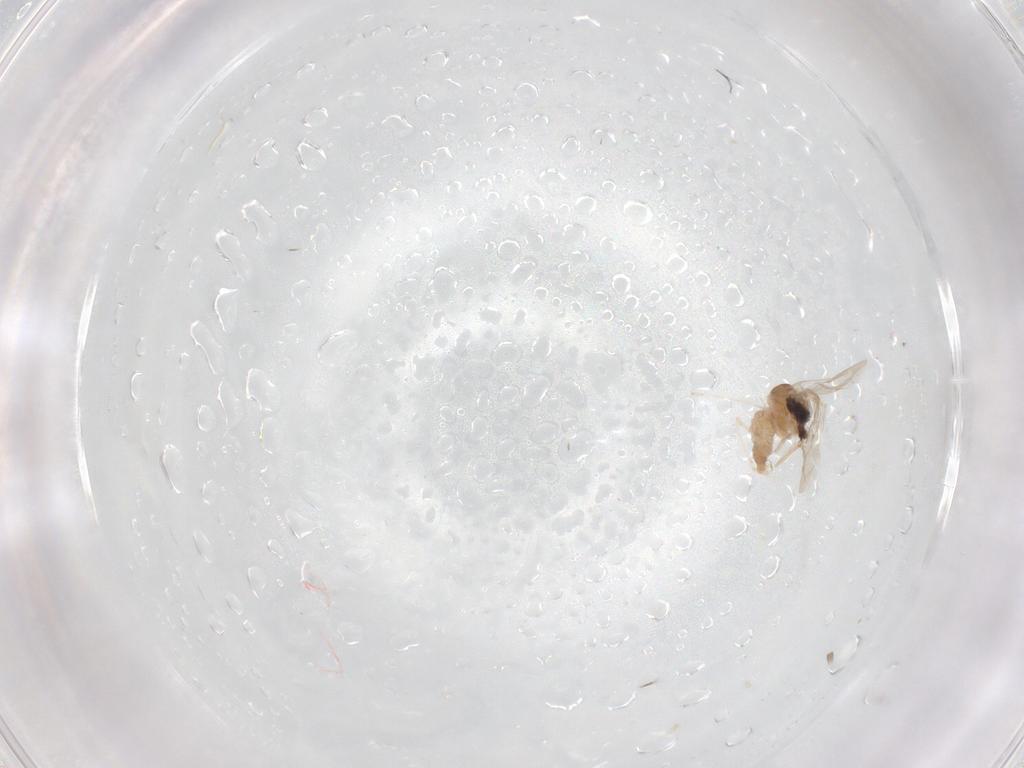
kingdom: Animalia
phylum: Arthropoda
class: Insecta
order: Diptera
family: Cecidomyiidae
